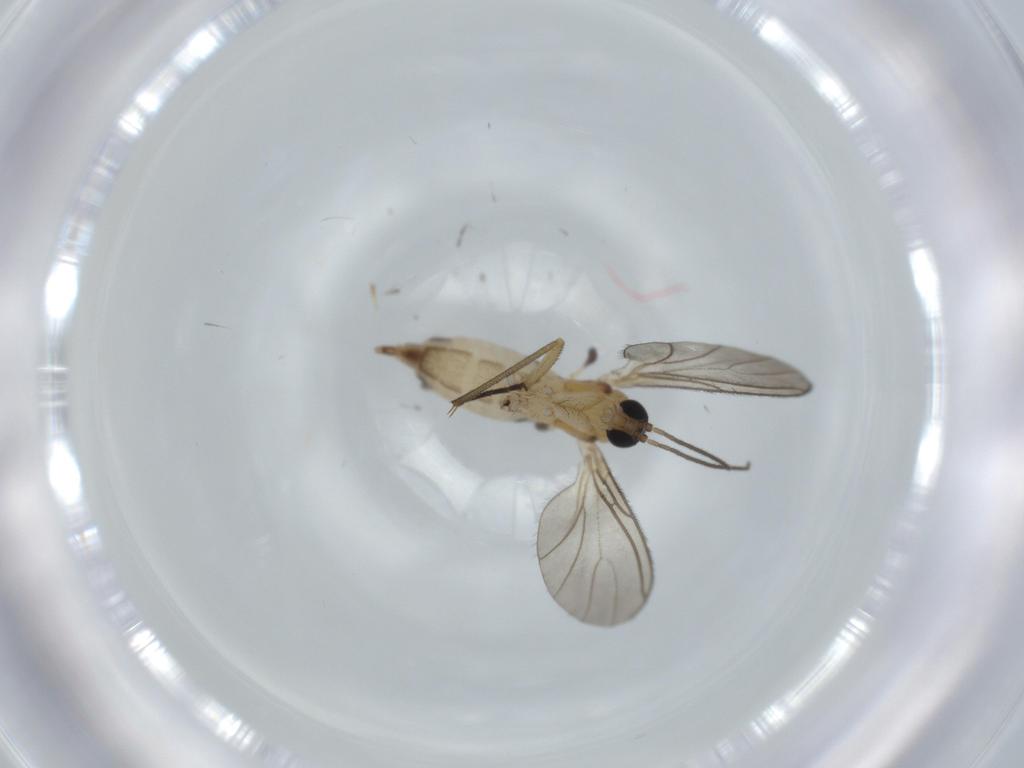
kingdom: Animalia
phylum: Arthropoda
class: Insecta
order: Diptera
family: Sciaridae
